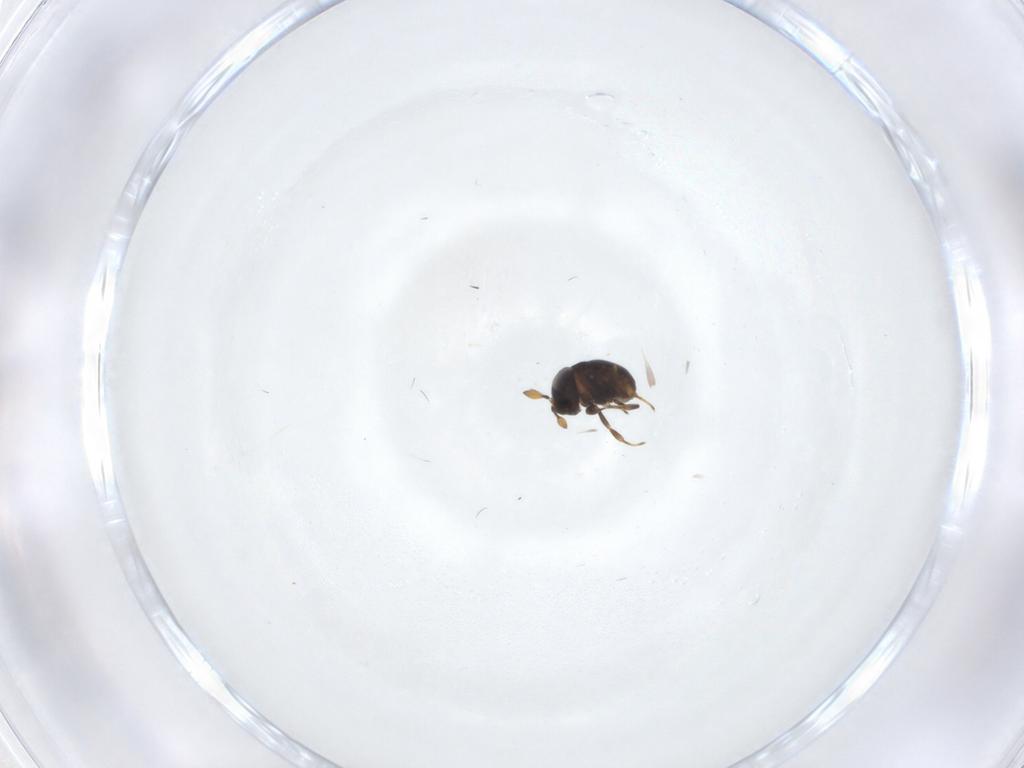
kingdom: Animalia
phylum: Arthropoda
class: Insecta
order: Hymenoptera
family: Scelionidae
